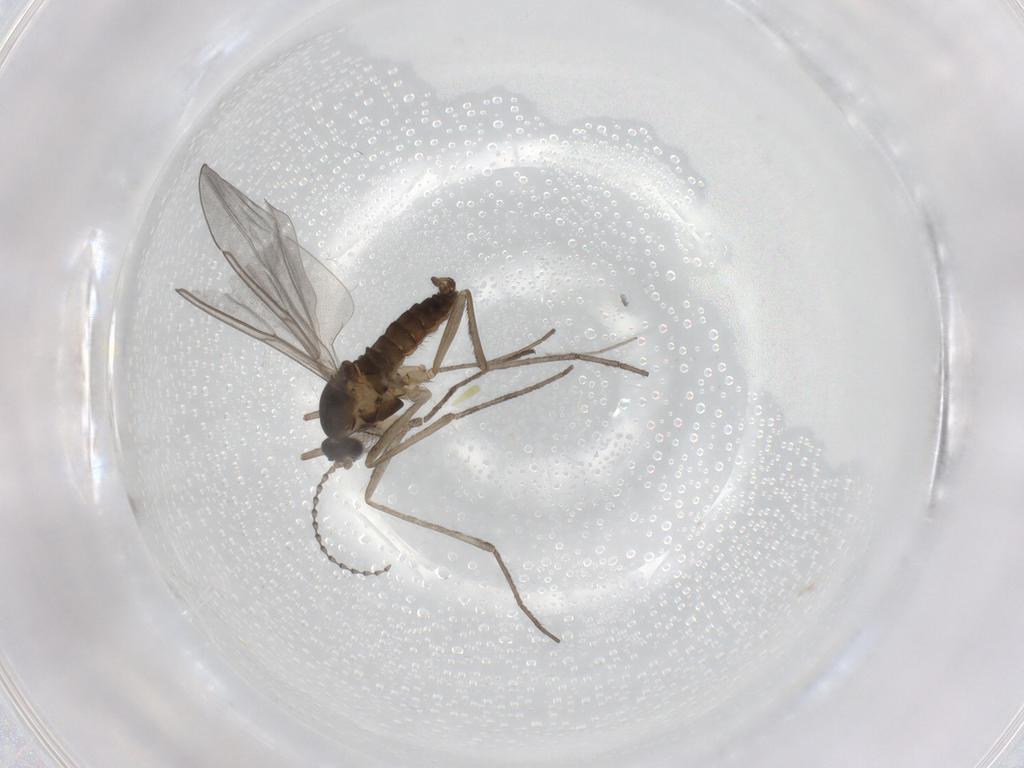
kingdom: Animalia
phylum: Arthropoda
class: Insecta
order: Diptera
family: Cecidomyiidae
